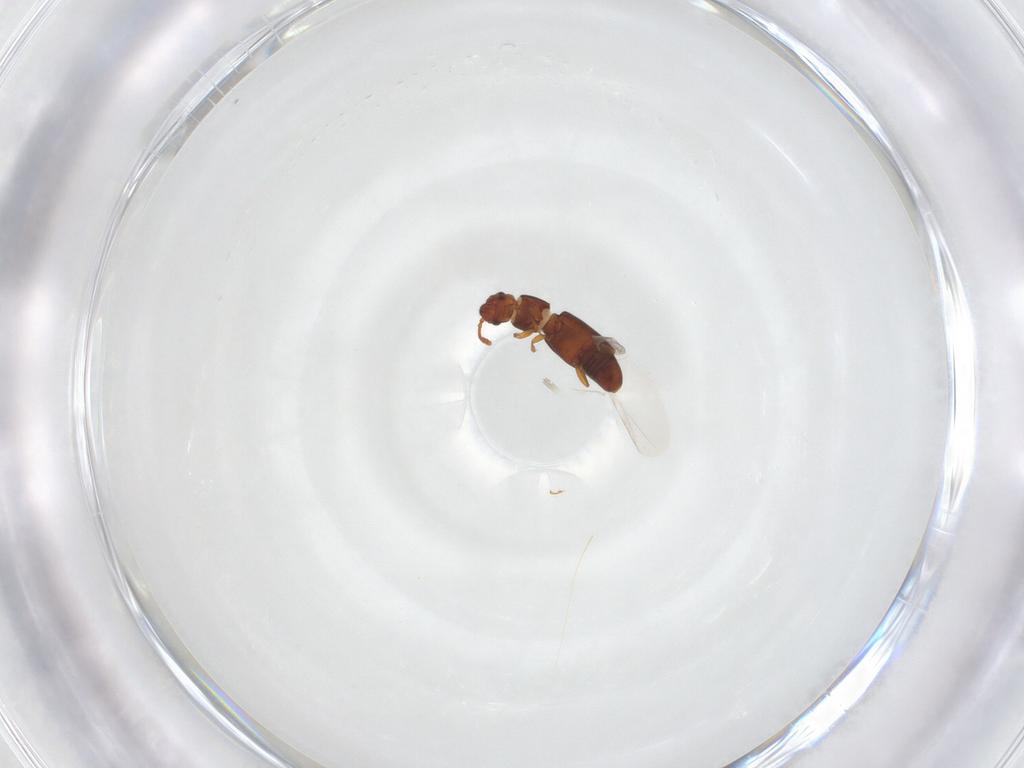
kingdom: Animalia
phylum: Arthropoda
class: Insecta
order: Coleoptera
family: Smicripidae
